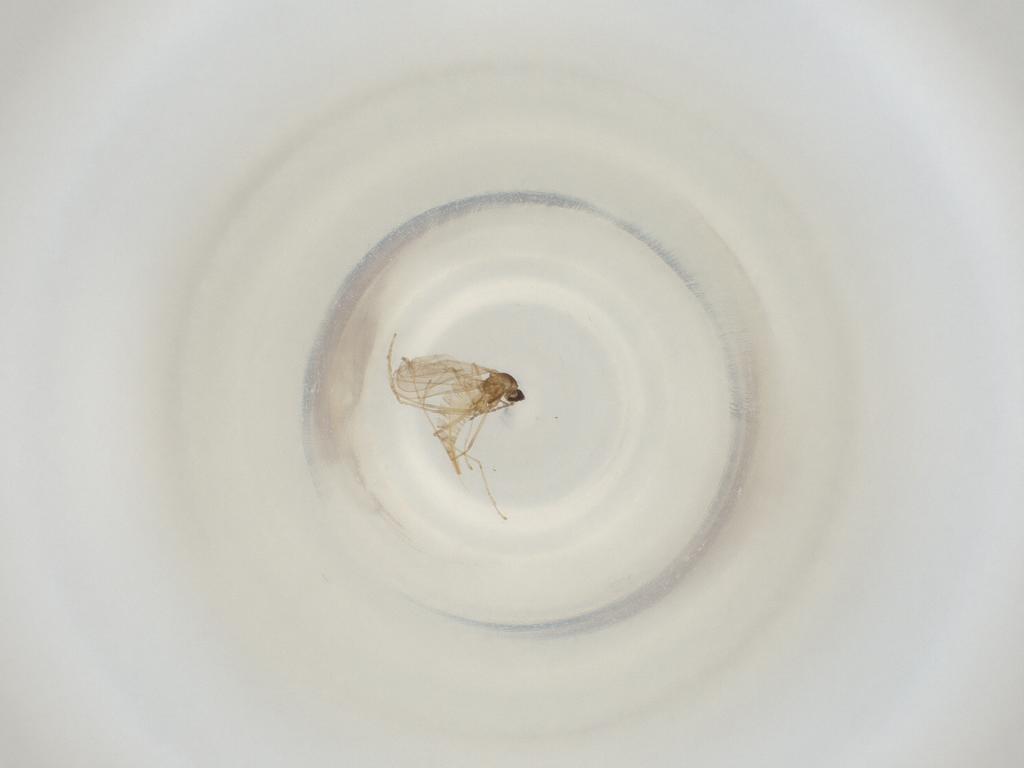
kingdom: Animalia
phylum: Arthropoda
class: Insecta
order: Diptera
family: Cecidomyiidae
